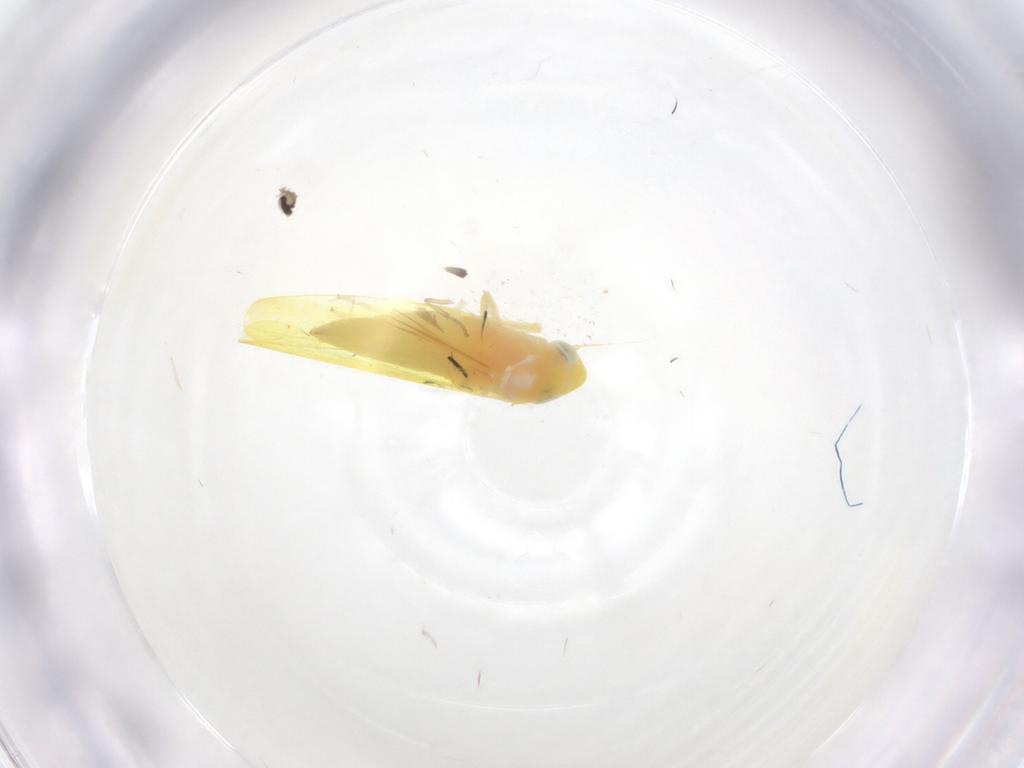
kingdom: Animalia
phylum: Arthropoda
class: Insecta
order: Hemiptera
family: Cicadellidae
